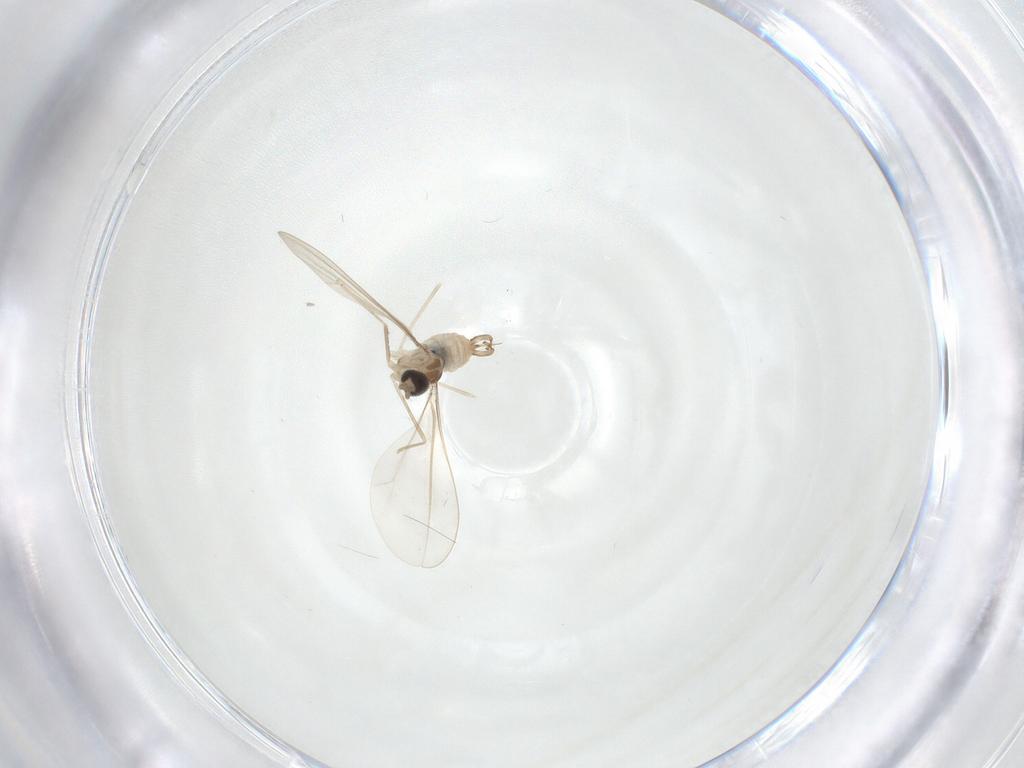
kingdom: Animalia
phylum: Arthropoda
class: Insecta
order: Diptera
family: Cecidomyiidae
